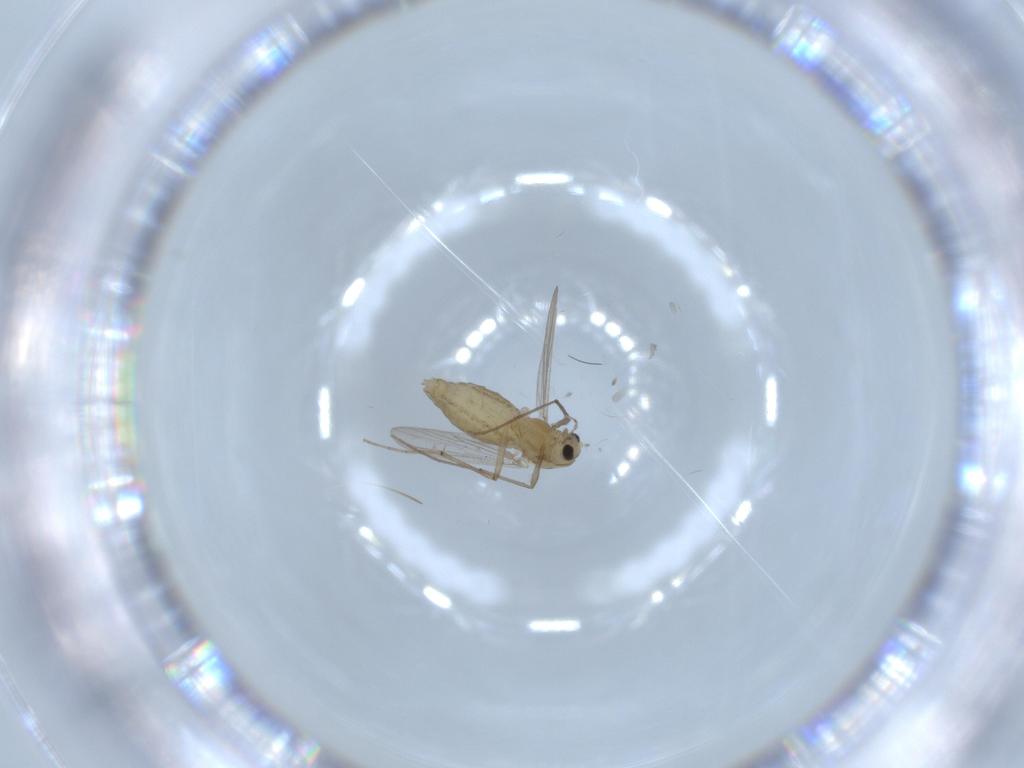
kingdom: Animalia
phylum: Arthropoda
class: Insecta
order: Diptera
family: Chironomidae
